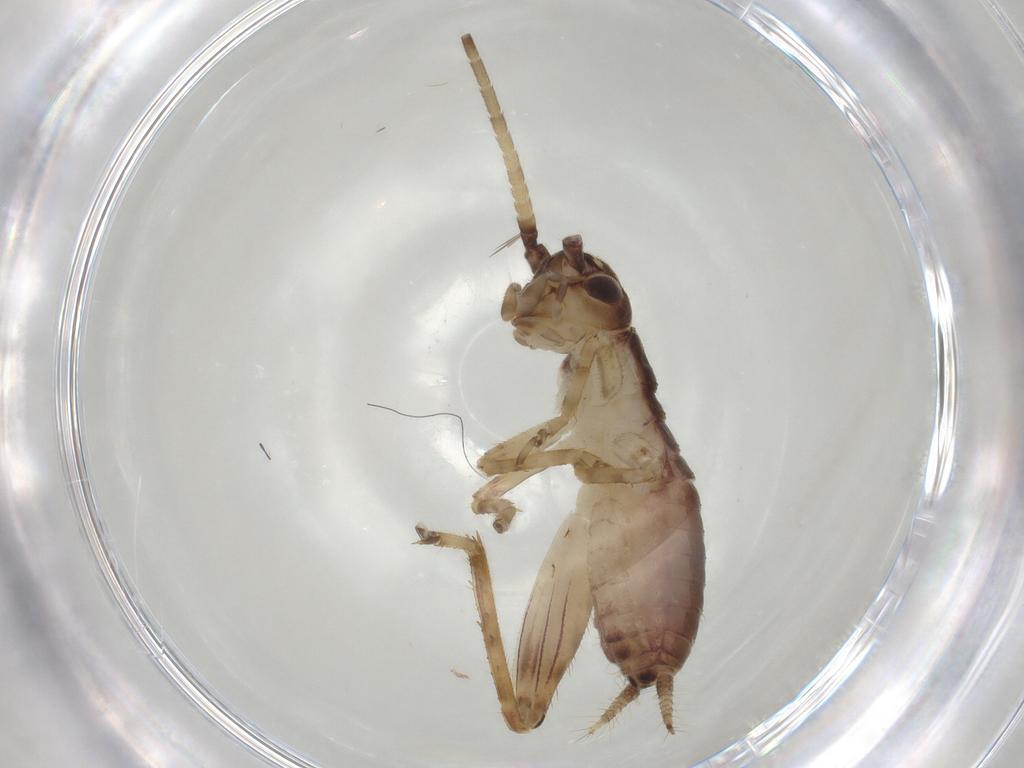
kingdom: Animalia
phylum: Arthropoda
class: Insecta
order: Orthoptera
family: Gryllidae
